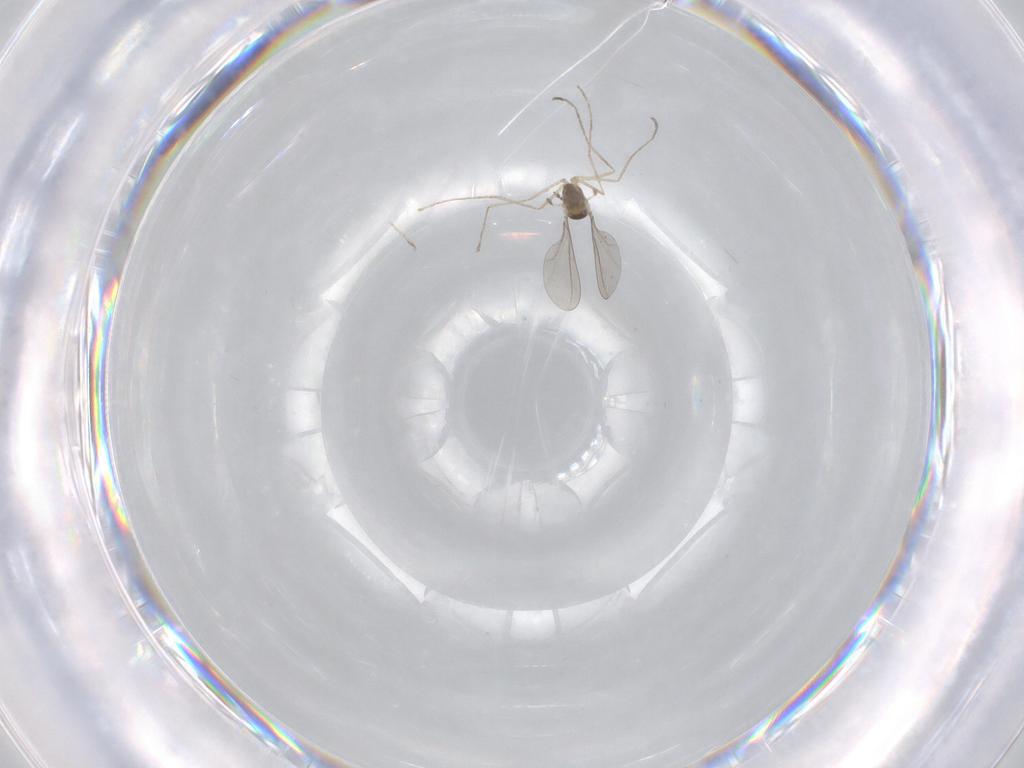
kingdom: Animalia
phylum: Arthropoda
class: Insecta
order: Diptera
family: Cecidomyiidae
